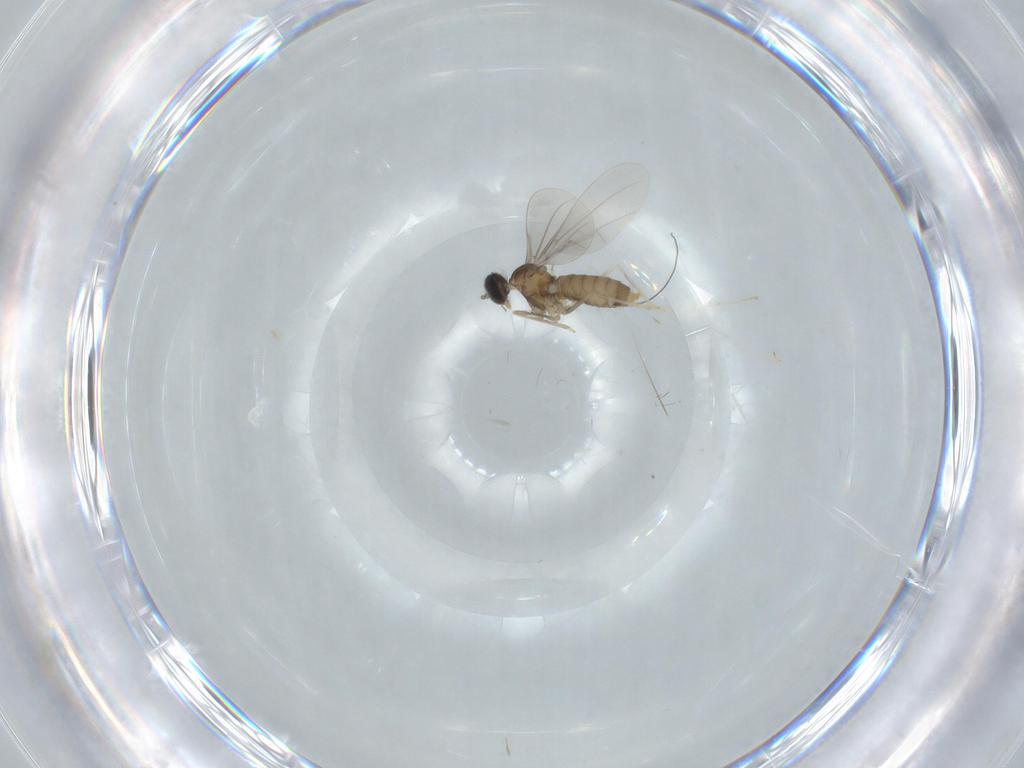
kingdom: Animalia
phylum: Arthropoda
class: Insecta
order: Diptera
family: Cecidomyiidae
